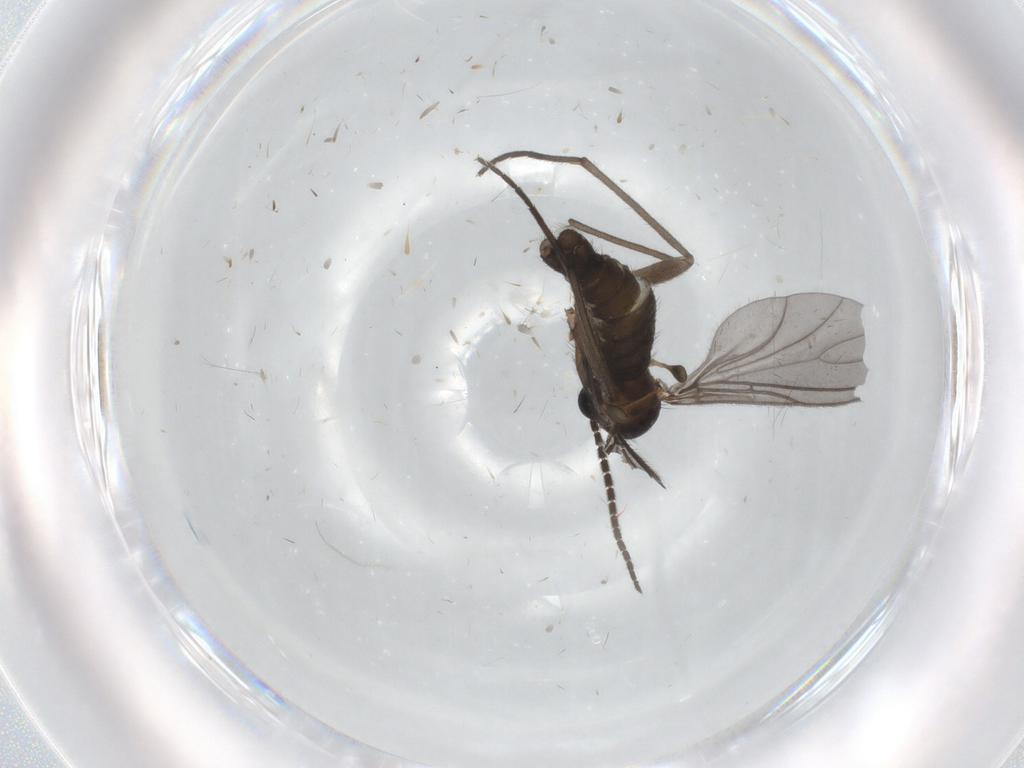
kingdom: Animalia
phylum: Arthropoda
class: Insecta
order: Diptera
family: Sciaridae
